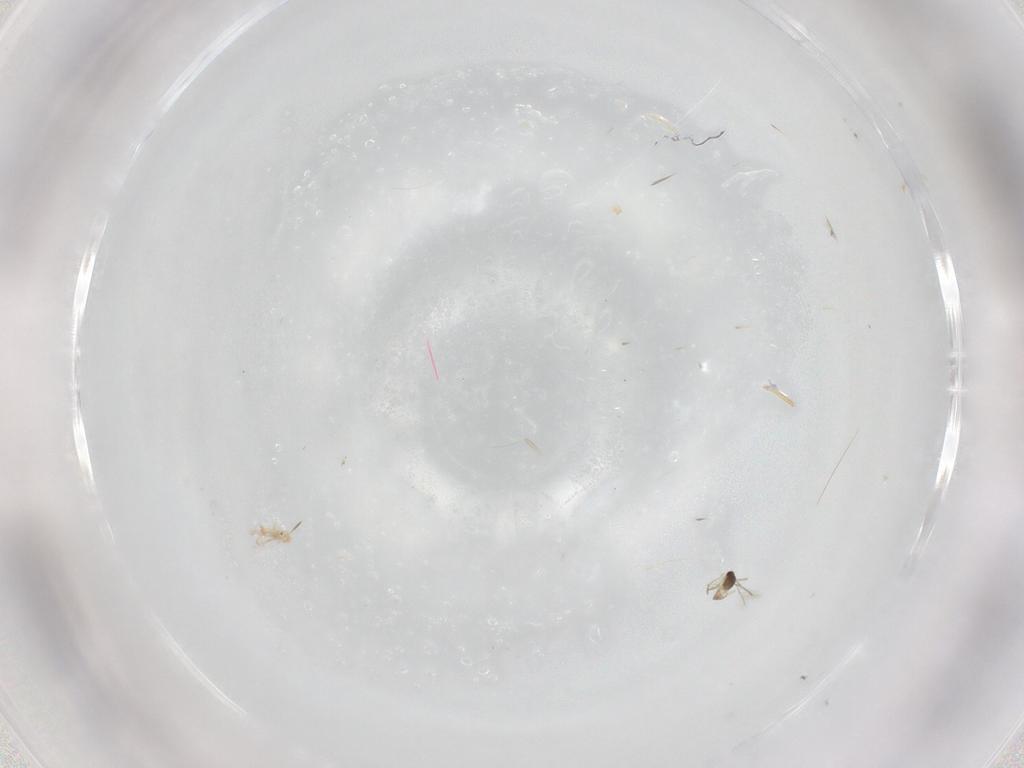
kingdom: Animalia
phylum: Arthropoda
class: Insecta
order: Hymenoptera
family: Mymaridae
